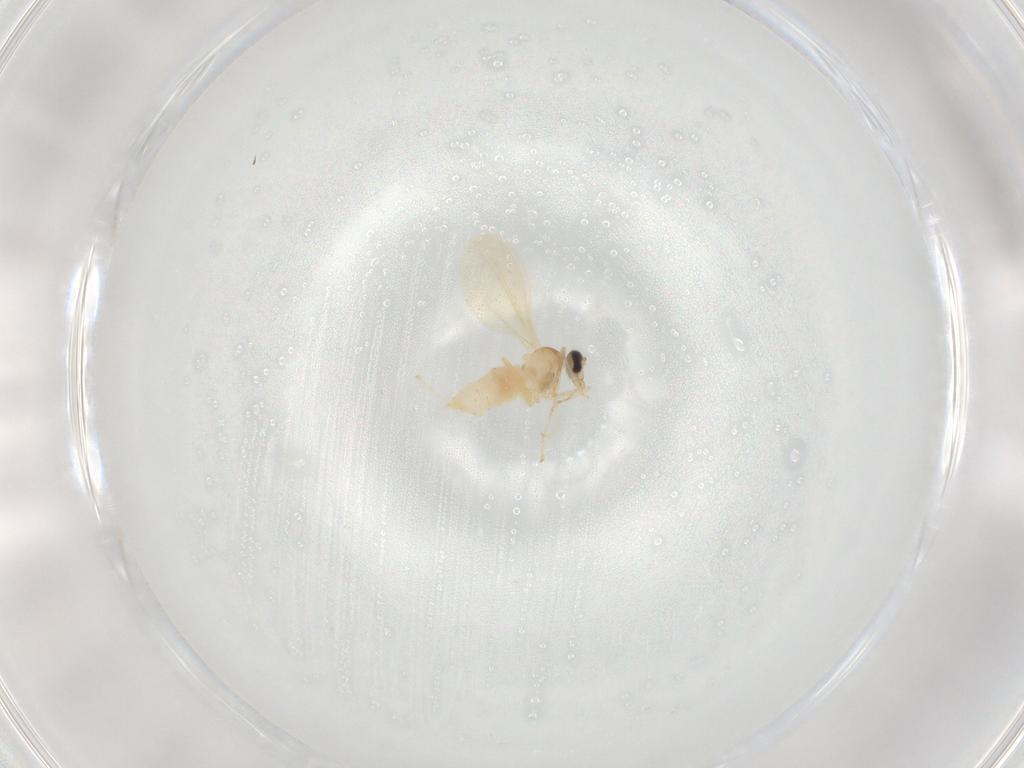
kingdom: Animalia
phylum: Arthropoda
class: Insecta
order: Diptera
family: Cecidomyiidae
